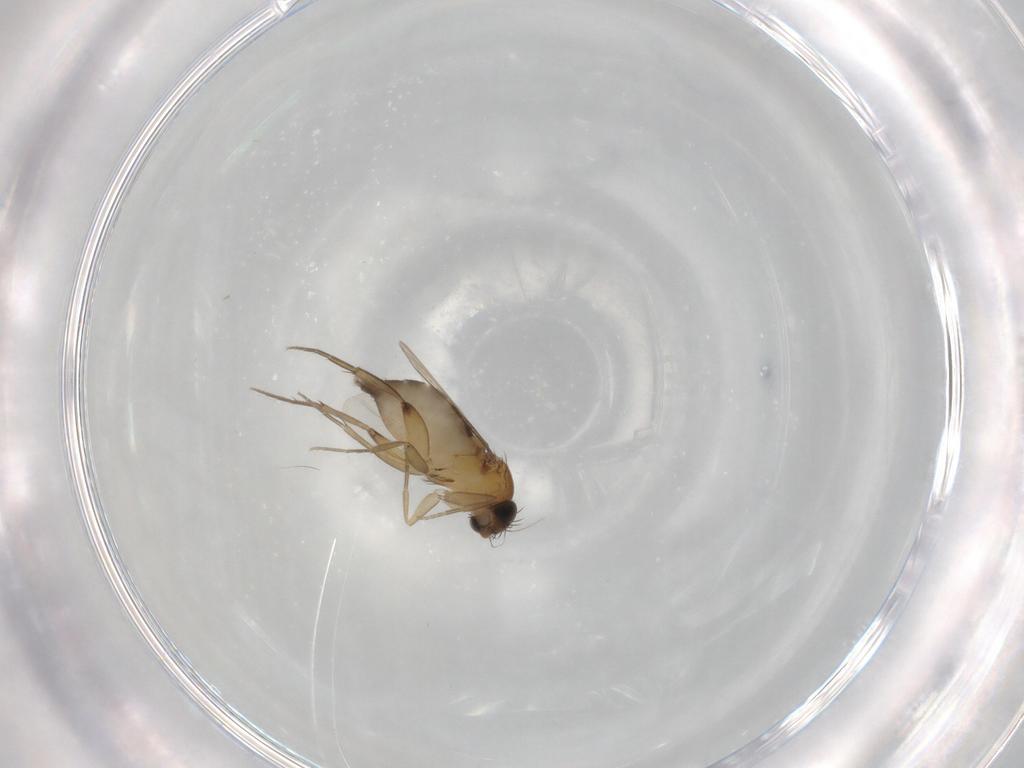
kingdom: Animalia
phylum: Arthropoda
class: Insecta
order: Diptera
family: Phoridae
